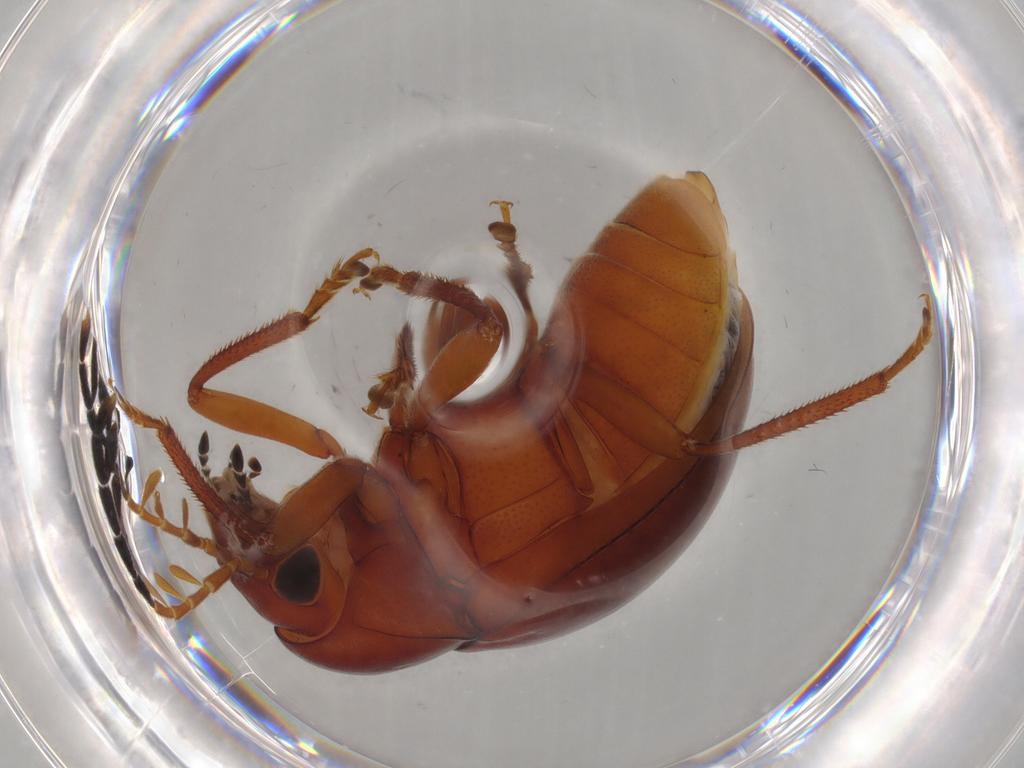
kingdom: Animalia
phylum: Arthropoda
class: Insecta
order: Coleoptera
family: Ptilodactylidae
